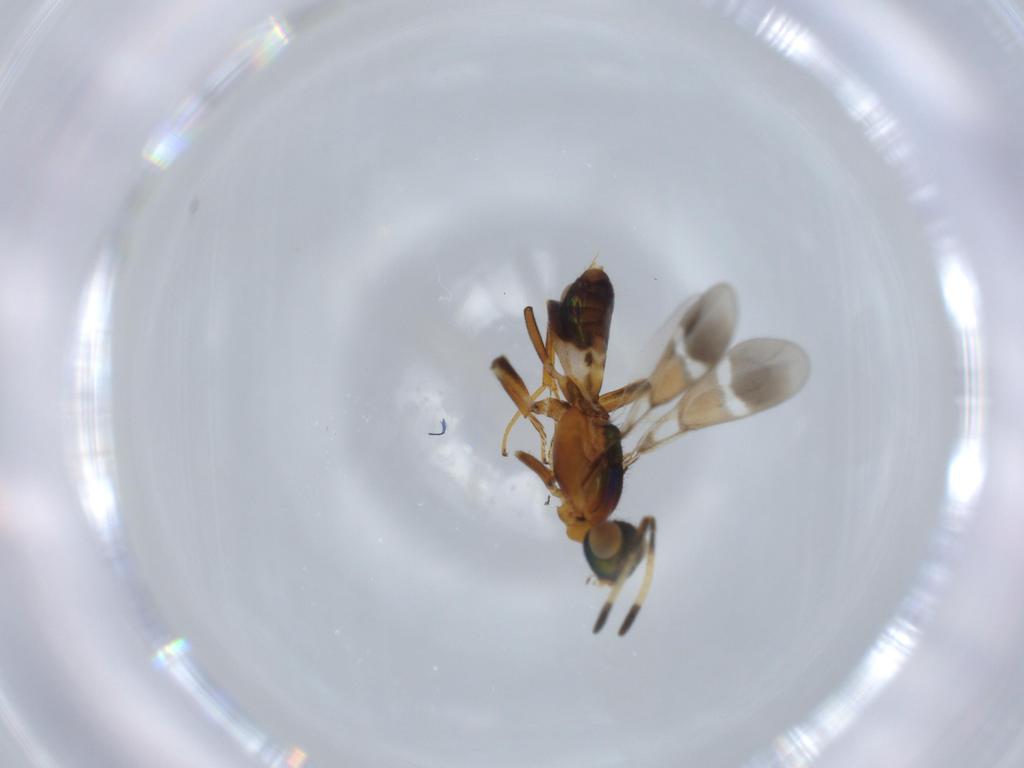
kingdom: Animalia
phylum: Arthropoda
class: Insecta
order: Hymenoptera
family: Eupelmidae
